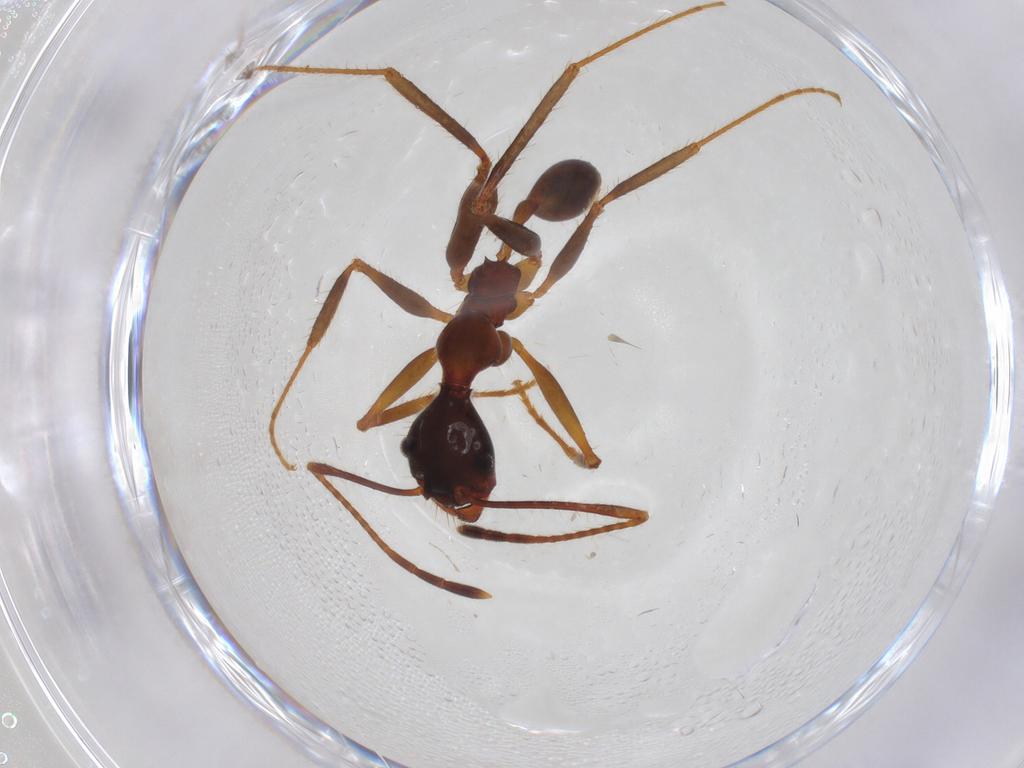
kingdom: Animalia
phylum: Arthropoda
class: Insecta
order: Hymenoptera
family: Formicidae
